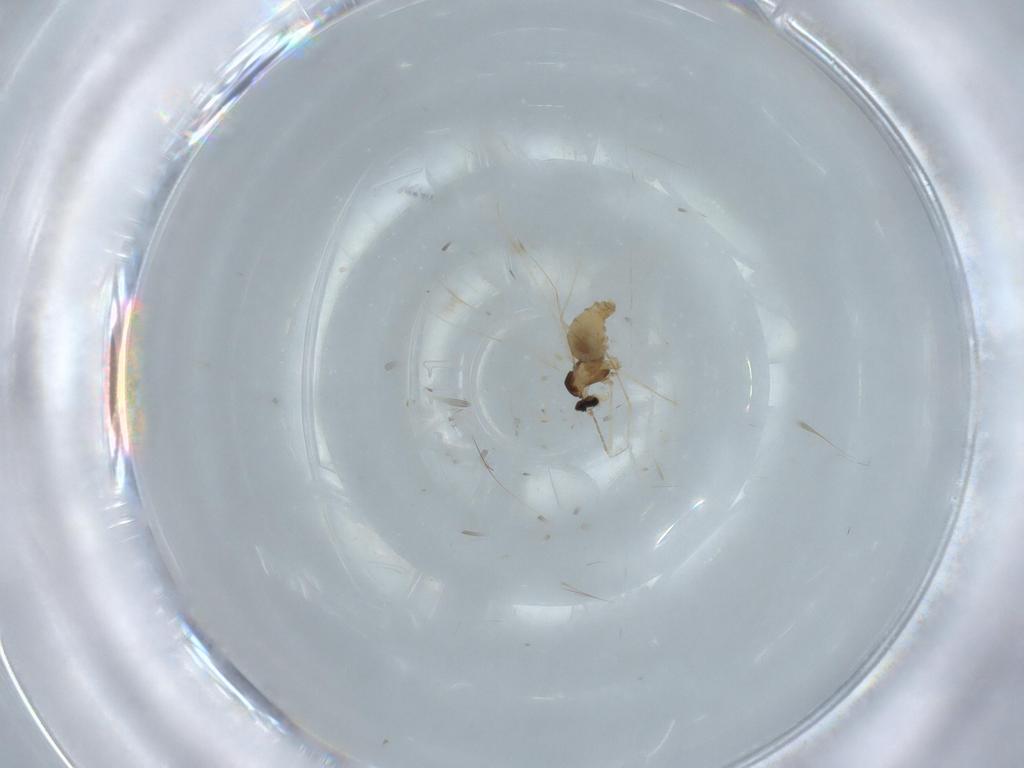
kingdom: Animalia
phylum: Arthropoda
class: Insecta
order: Diptera
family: Cecidomyiidae
